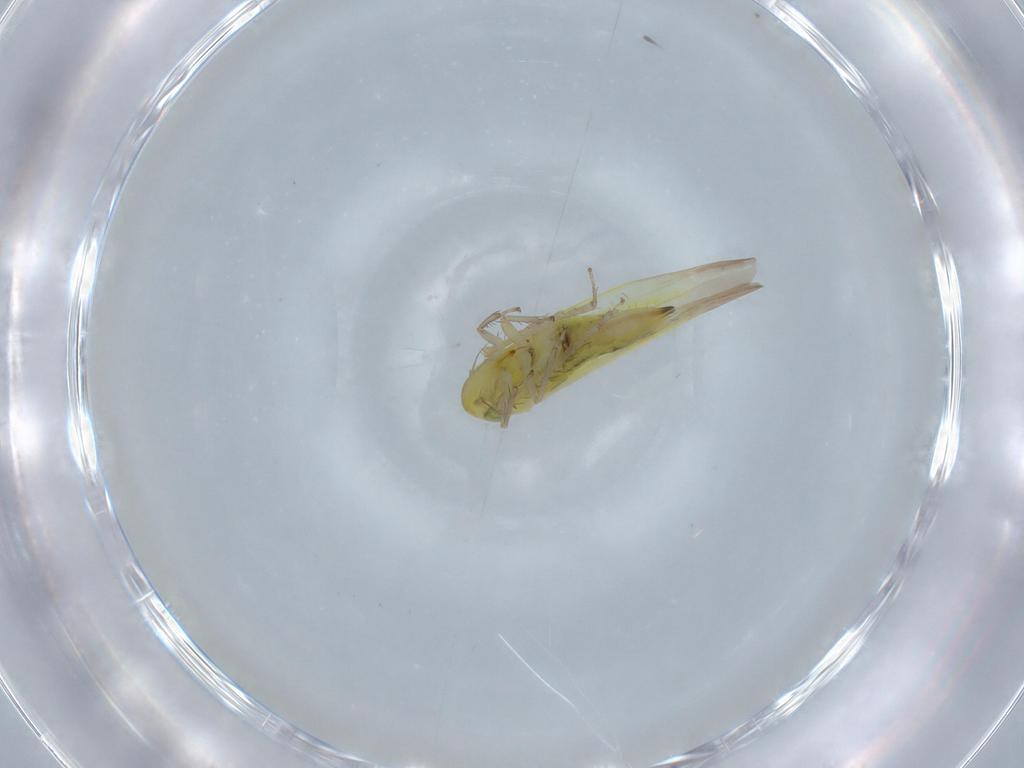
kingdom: Animalia
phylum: Arthropoda
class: Insecta
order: Hemiptera
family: Cicadellidae
